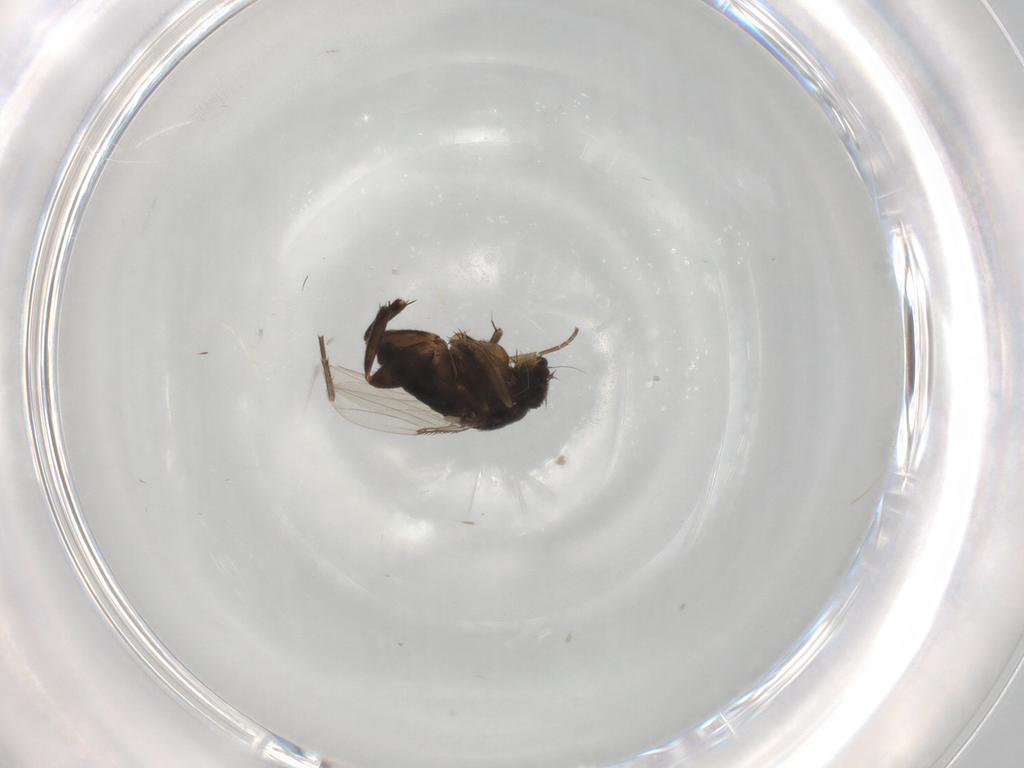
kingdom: Animalia
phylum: Arthropoda
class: Insecta
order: Diptera
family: Phoridae
